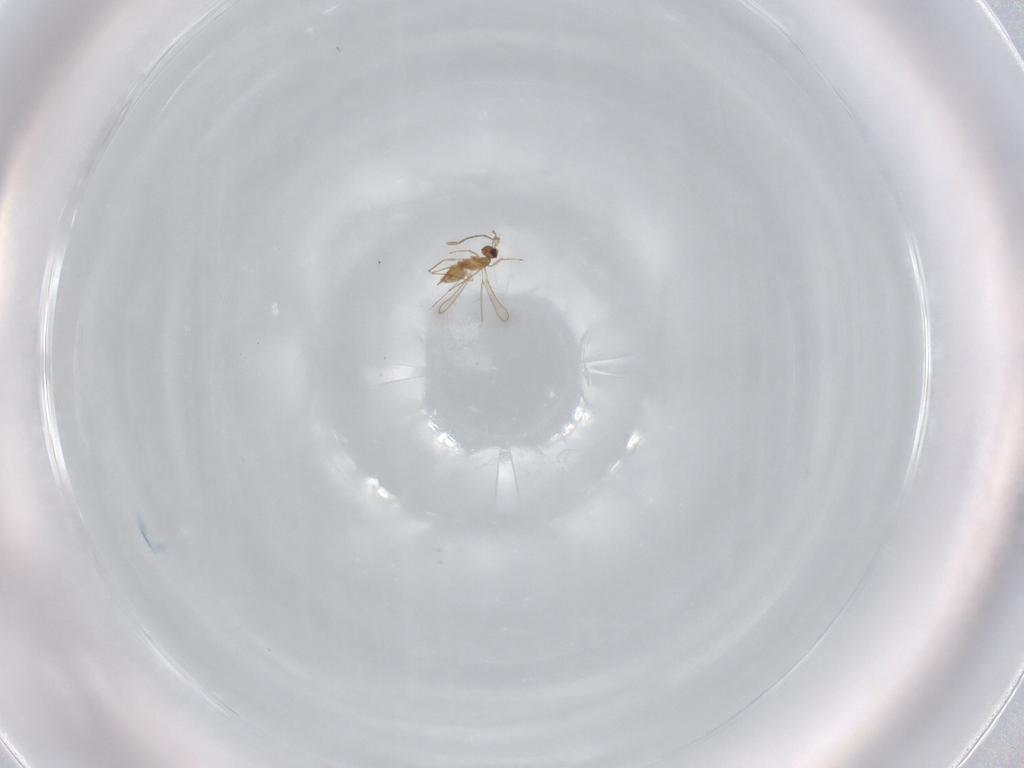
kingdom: Animalia
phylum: Arthropoda
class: Insecta
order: Hymenoptera
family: Mymaridae
